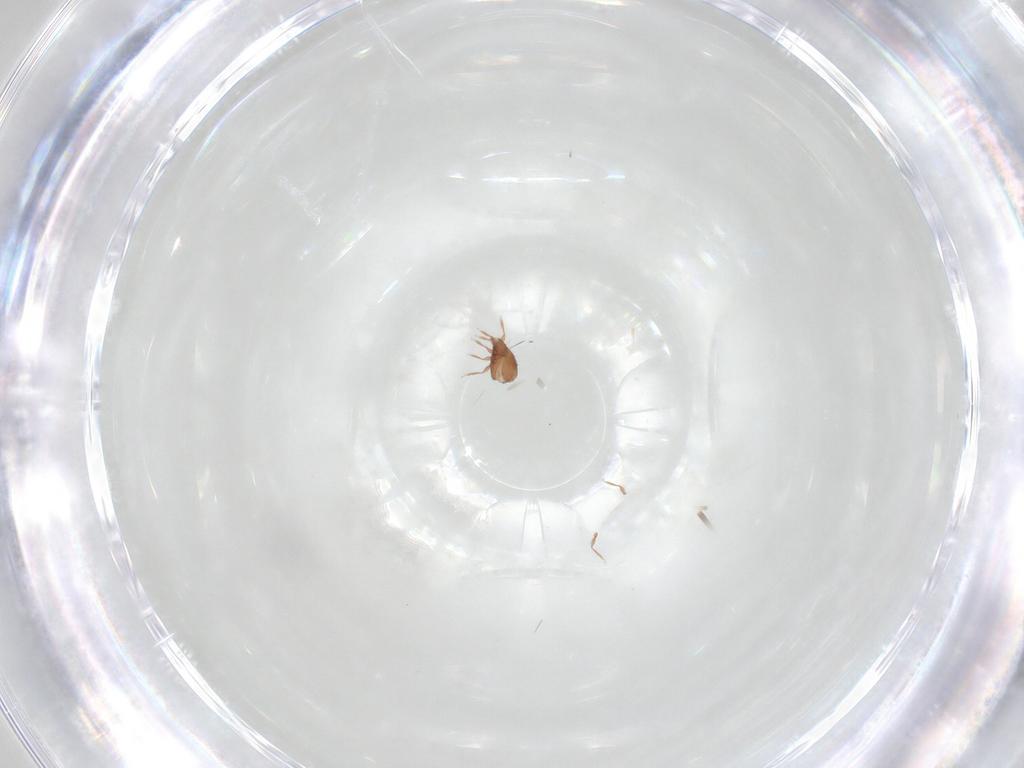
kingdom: Animalia
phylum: Arthropoda
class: Arachnida
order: Sarcoptiformes
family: Oribatulidae
